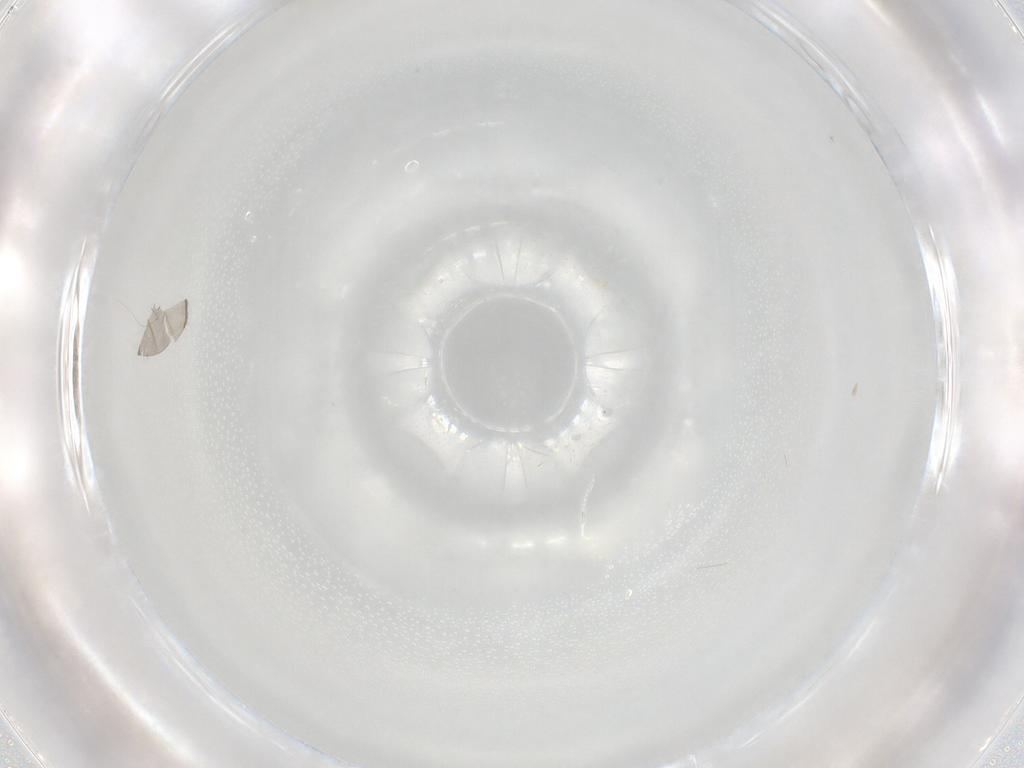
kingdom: Animalia
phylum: Arthropoda
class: Insecta
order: Diptera
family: Cecidomyiidae
